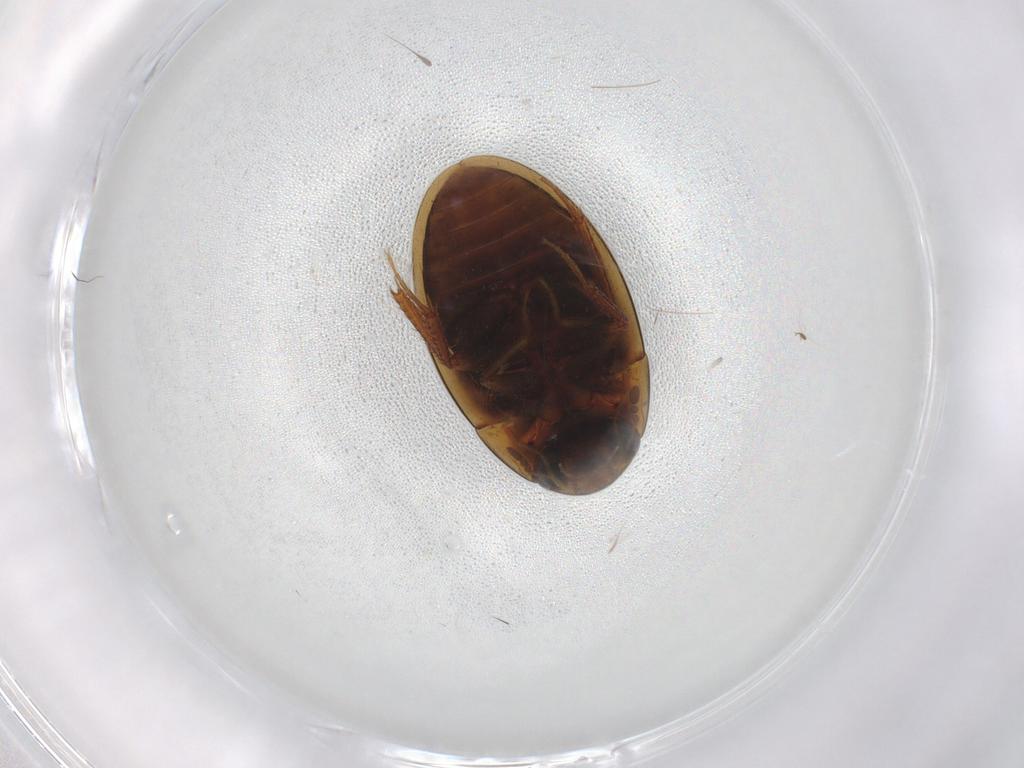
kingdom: Animalia
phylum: Arthropoda
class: Insecta
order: Coleoptera
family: Hydrophilidae
